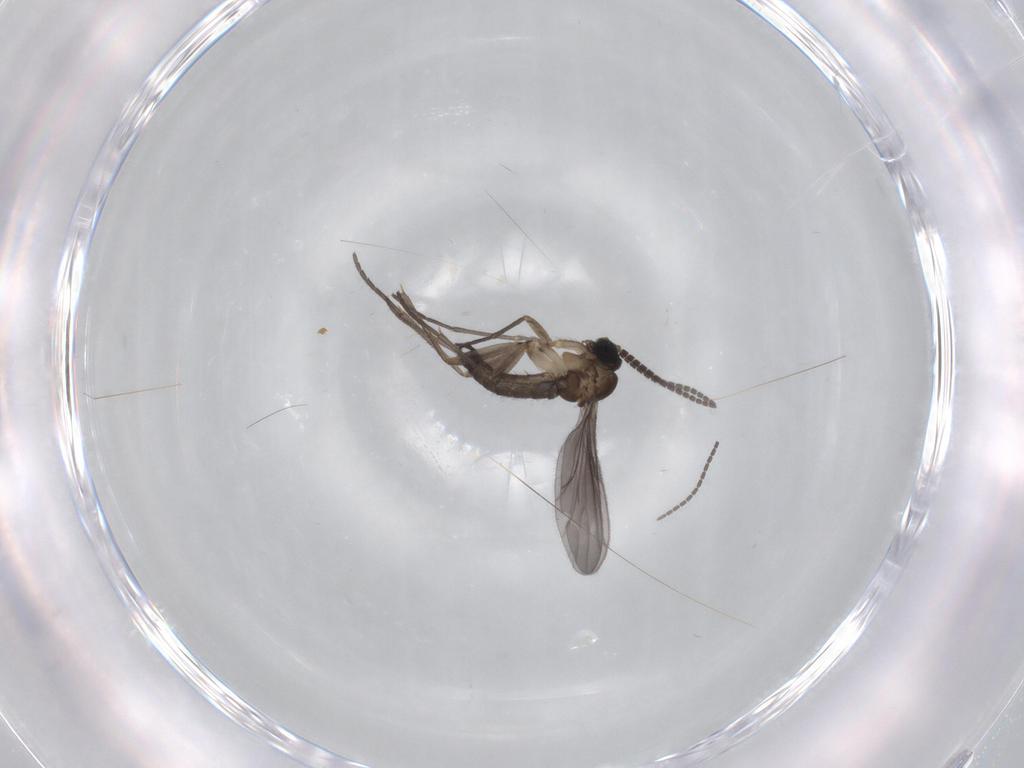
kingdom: Animalia
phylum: Arthropoda
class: Insecta
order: Diptera
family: Sciaridae
